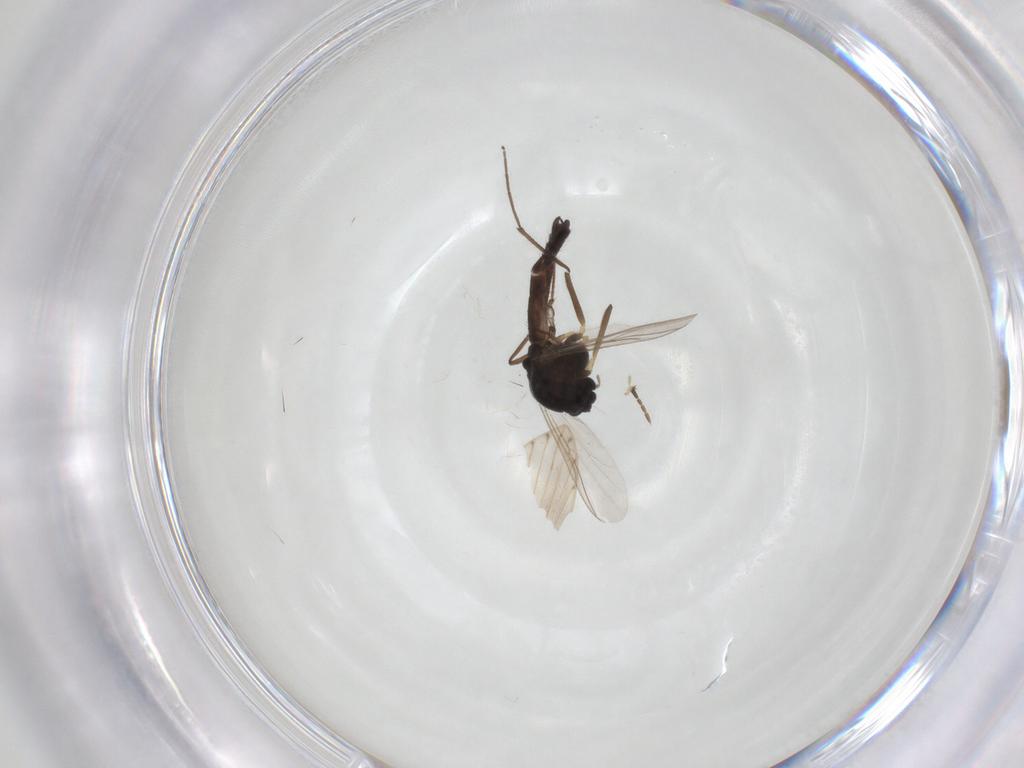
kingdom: Animalia
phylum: Arthropoda
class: Insecta
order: Diptera
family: Chironomidae
